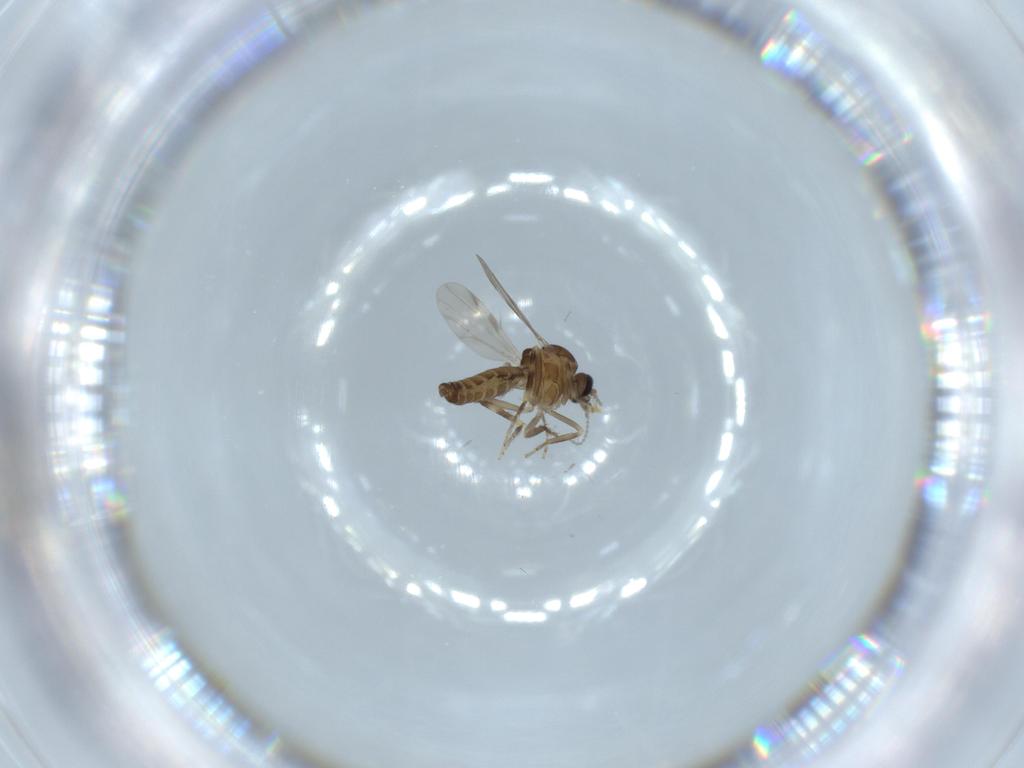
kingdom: Animalia
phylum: Arthropoda
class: Insecta
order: Diptera
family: Ceratopogonidae
